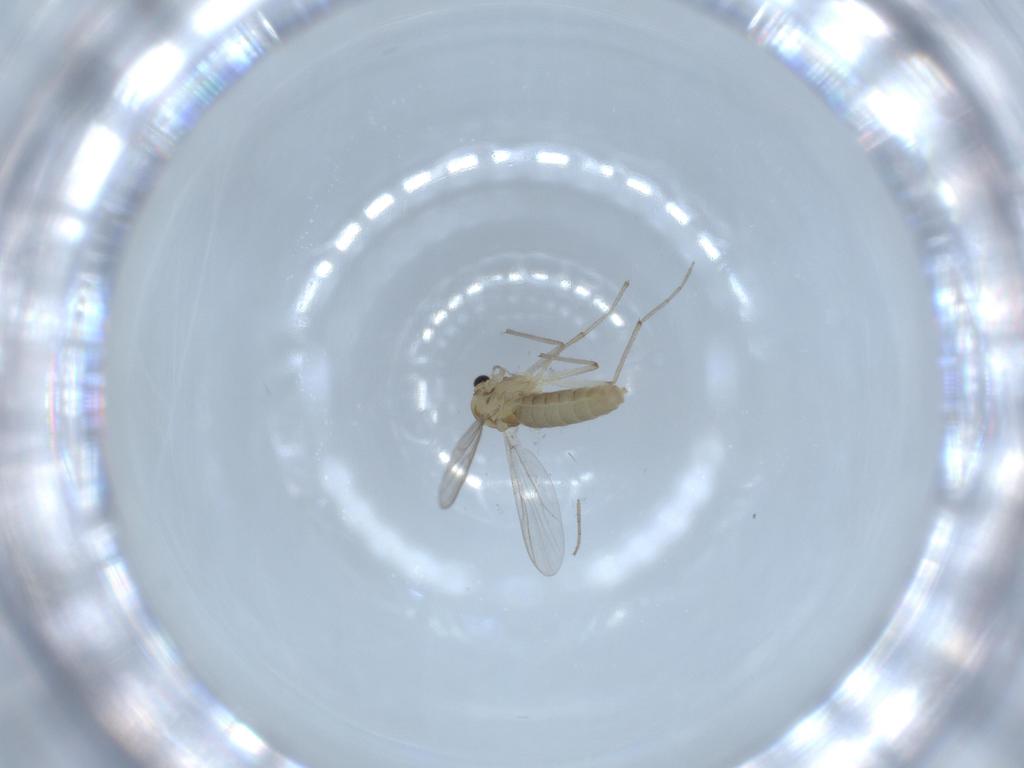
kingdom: Animalia
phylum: Arthropoda
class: Insecta
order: Diptera
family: Chironomidae
